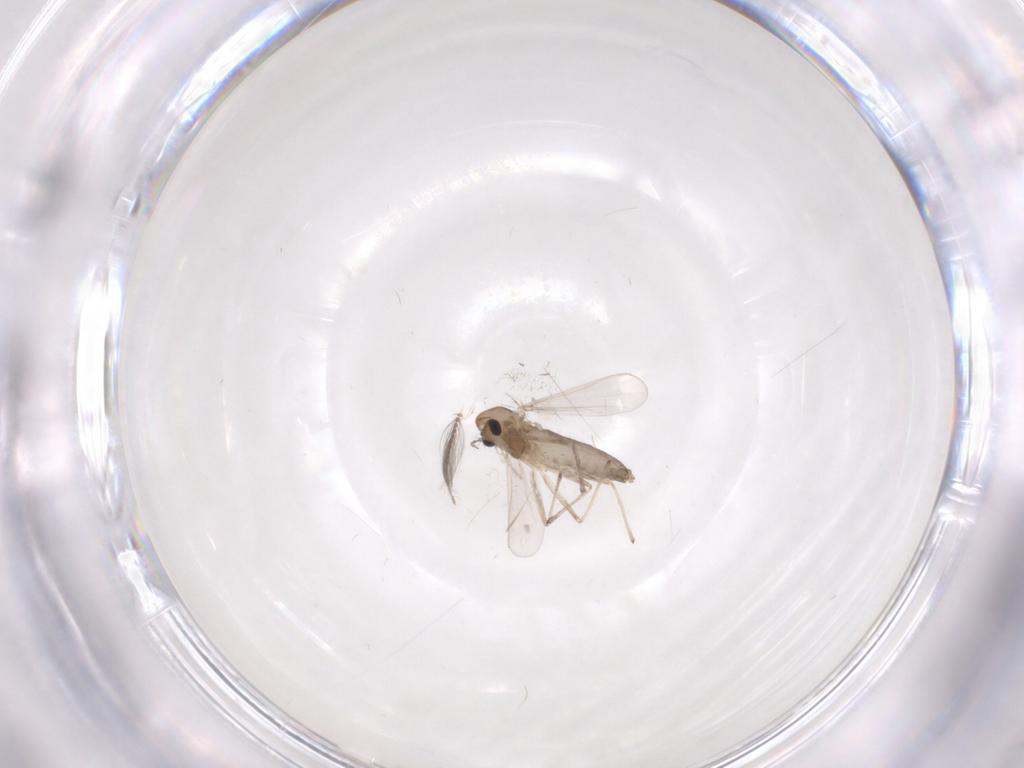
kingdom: Animalia
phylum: Arthropoda
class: Insecta
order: Diptera
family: Chironomidae
